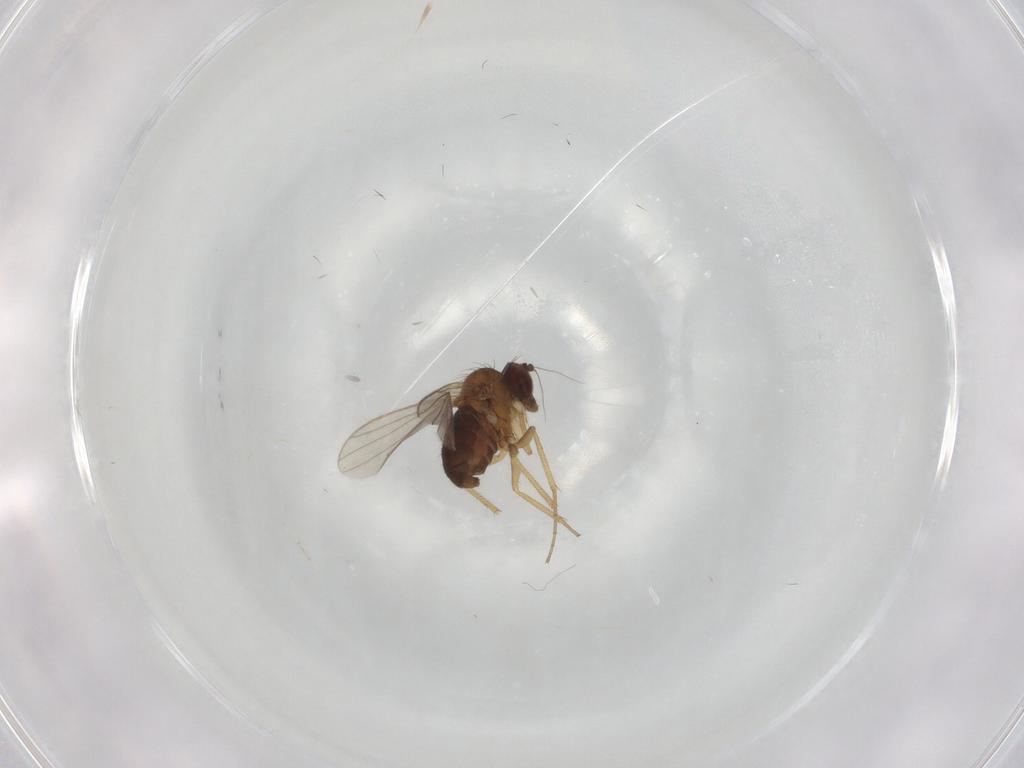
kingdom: Animalia
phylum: Arthropoda
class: Insecta
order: Diptera
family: Dolichopodidae
